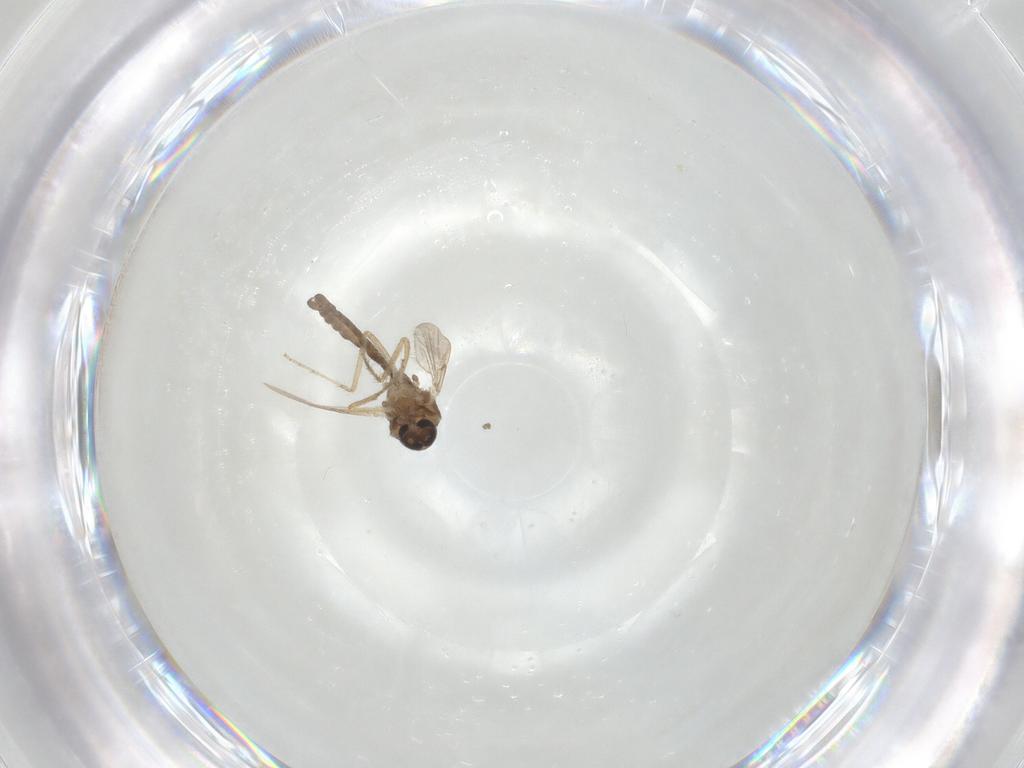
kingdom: Animalia
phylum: Arthropoda
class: Insecta
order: Diptera
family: Ceratopogonidae
